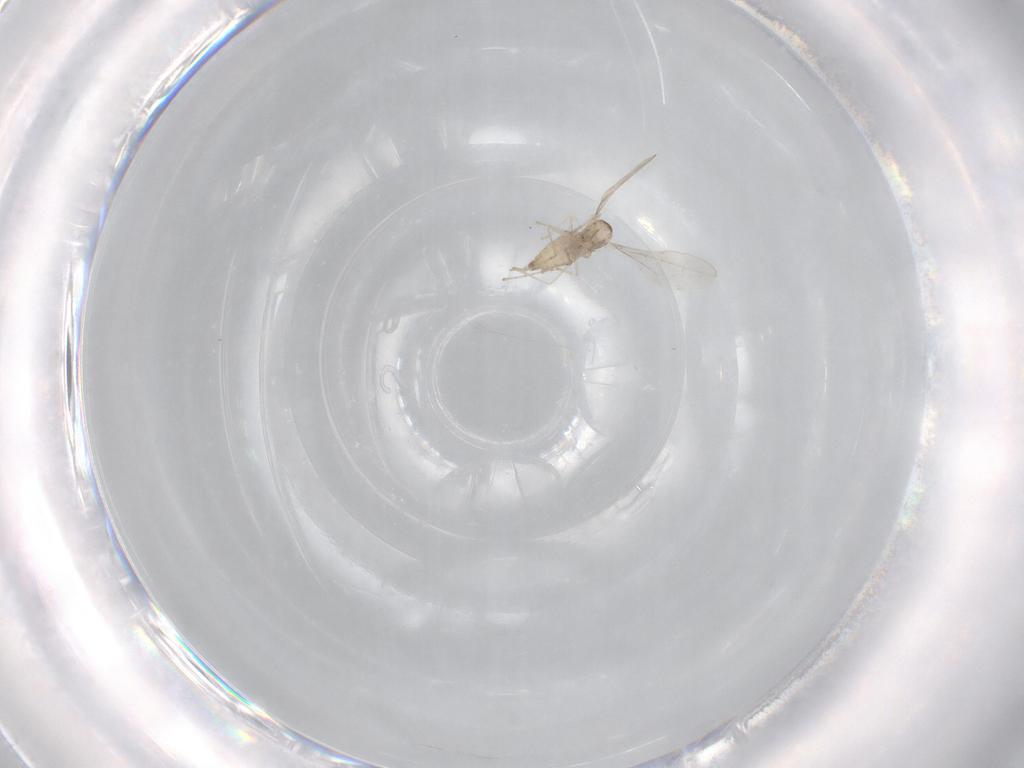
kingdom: Animalia
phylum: Arthropoda
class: Insecta
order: Diptera
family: Cecidomyiidae
